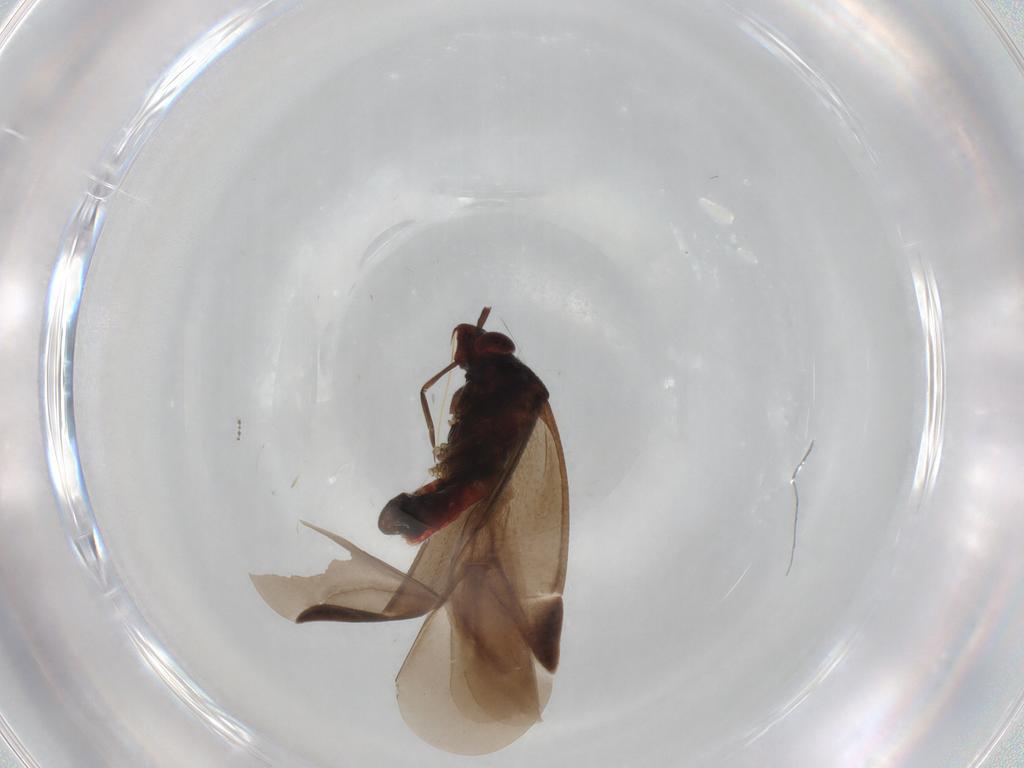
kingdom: Animalia
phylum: Arthropoda
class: Insecta
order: Hemiptera
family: Miridae
